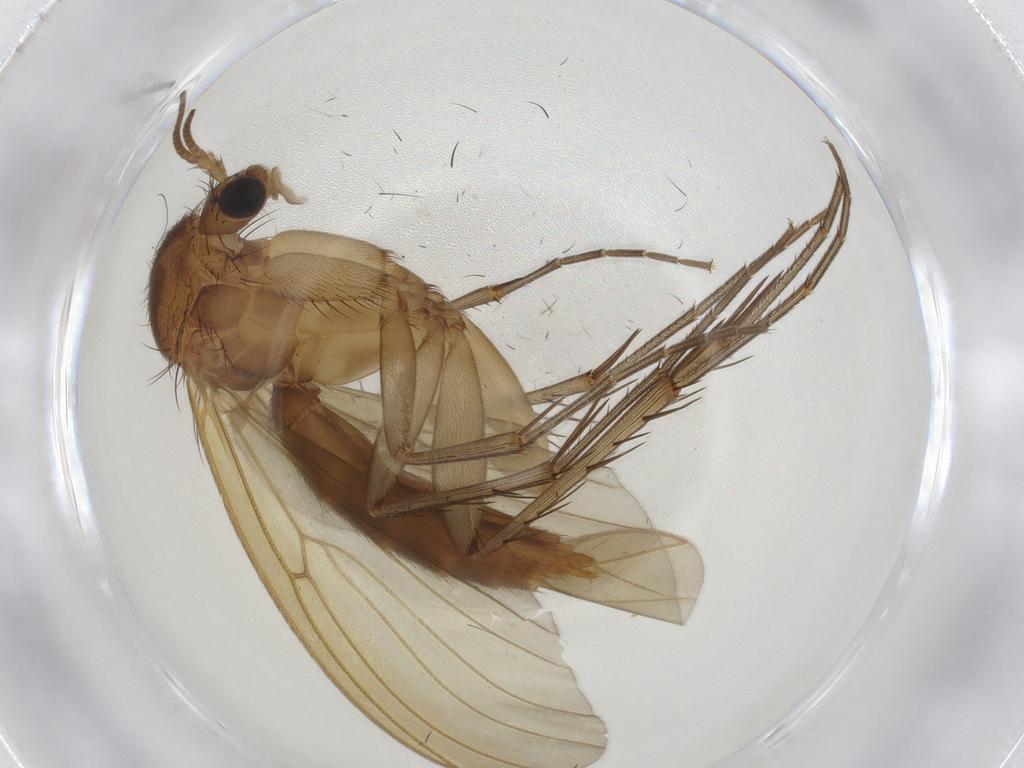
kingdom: Animalia
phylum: Arthropoda
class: Insecta
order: Diptera
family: Mycetophilidae
